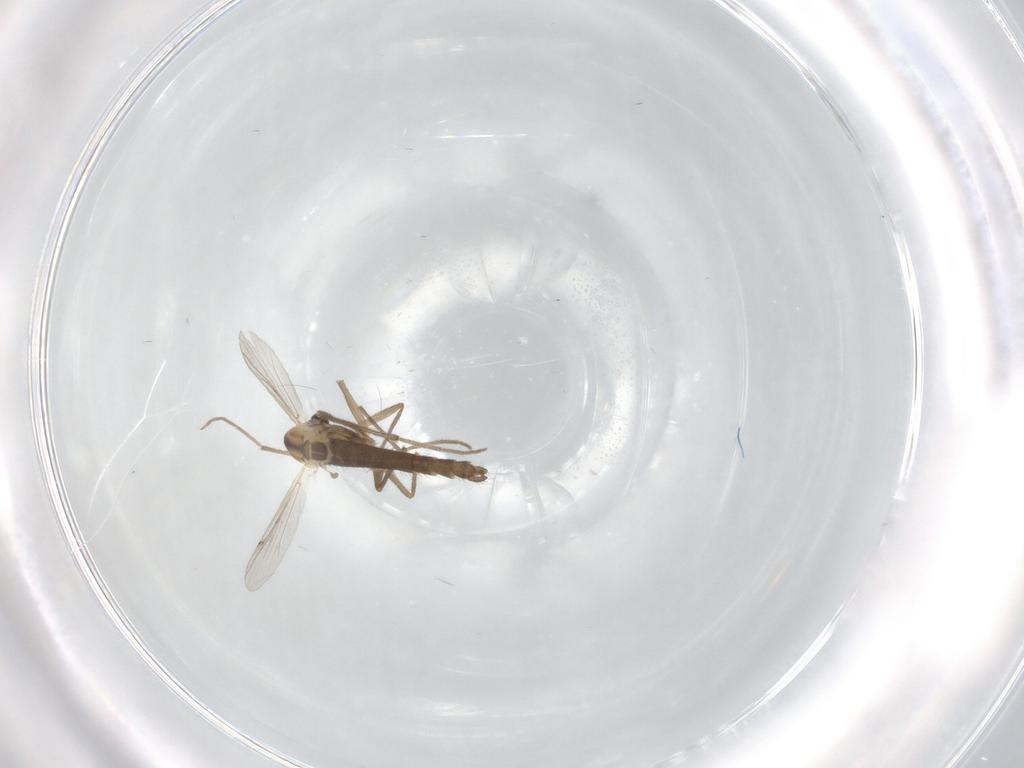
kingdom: Animalia
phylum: Arthropoda
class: Insecta
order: Diptera
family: Chironomidae
